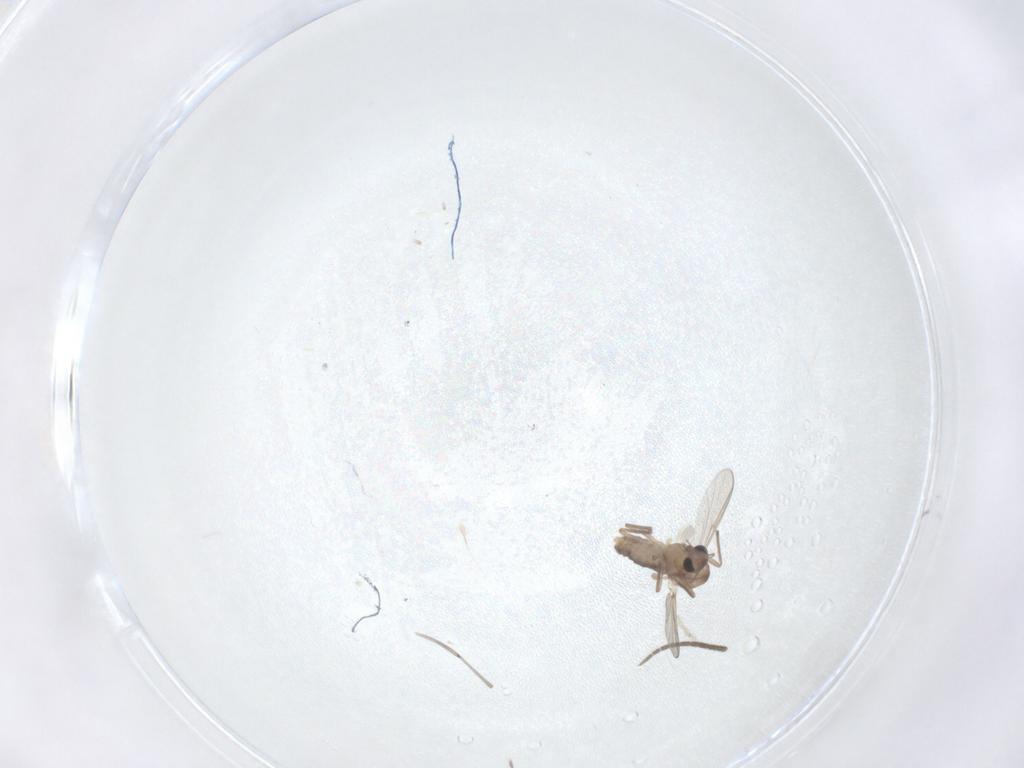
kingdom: Animalia
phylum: Arthropoda
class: Insecta
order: Diptera
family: Chironomidae
